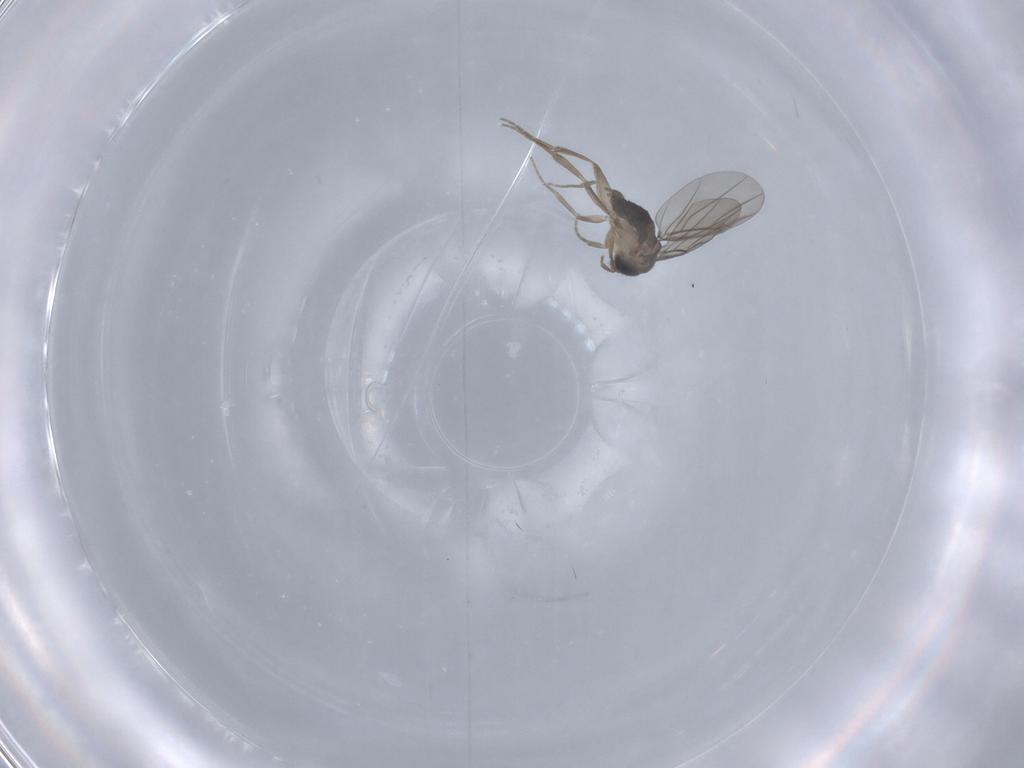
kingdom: Animalia
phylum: Arthropoda
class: Insecta
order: Diptera
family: Phoridae
